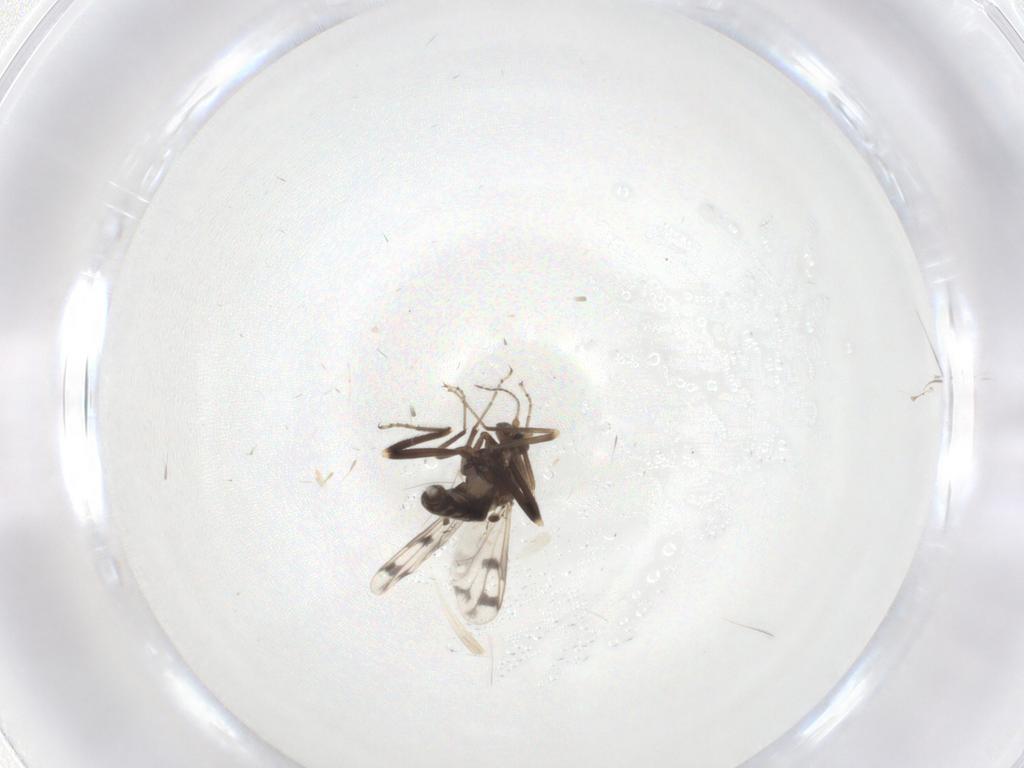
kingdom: Animalia
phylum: Arthropoda
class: Insecta
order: Diptera
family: Ceratopogonidae
